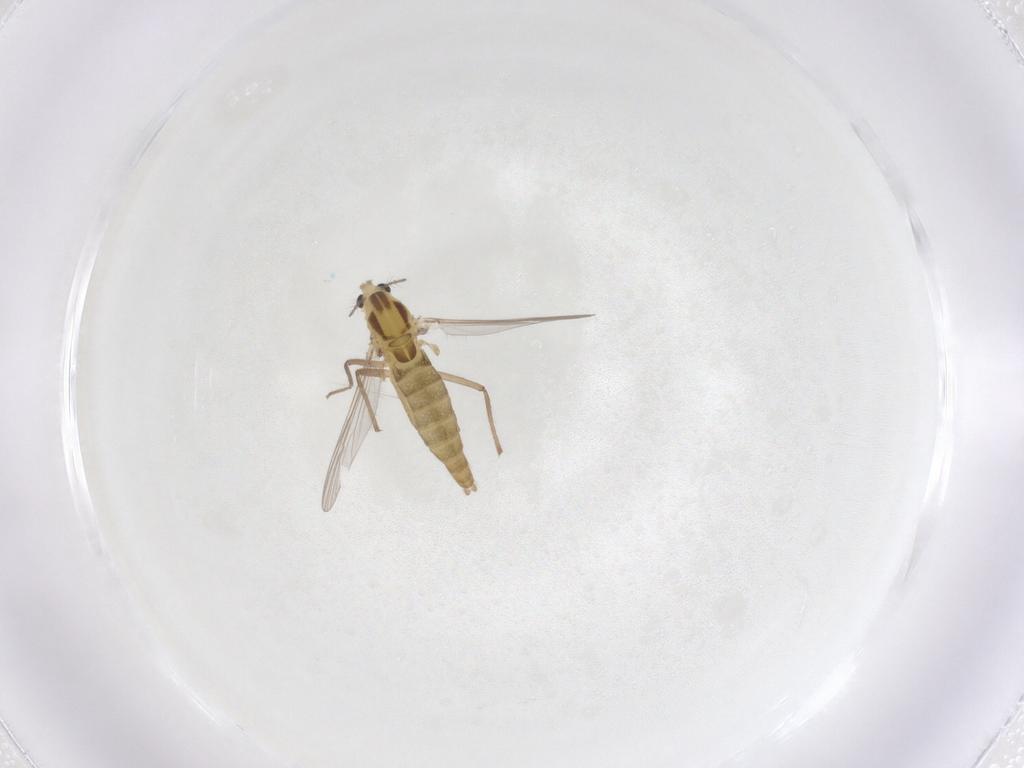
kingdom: Animalia
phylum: Arthropoda
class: Insecta
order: Diptera
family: Chironomidae
